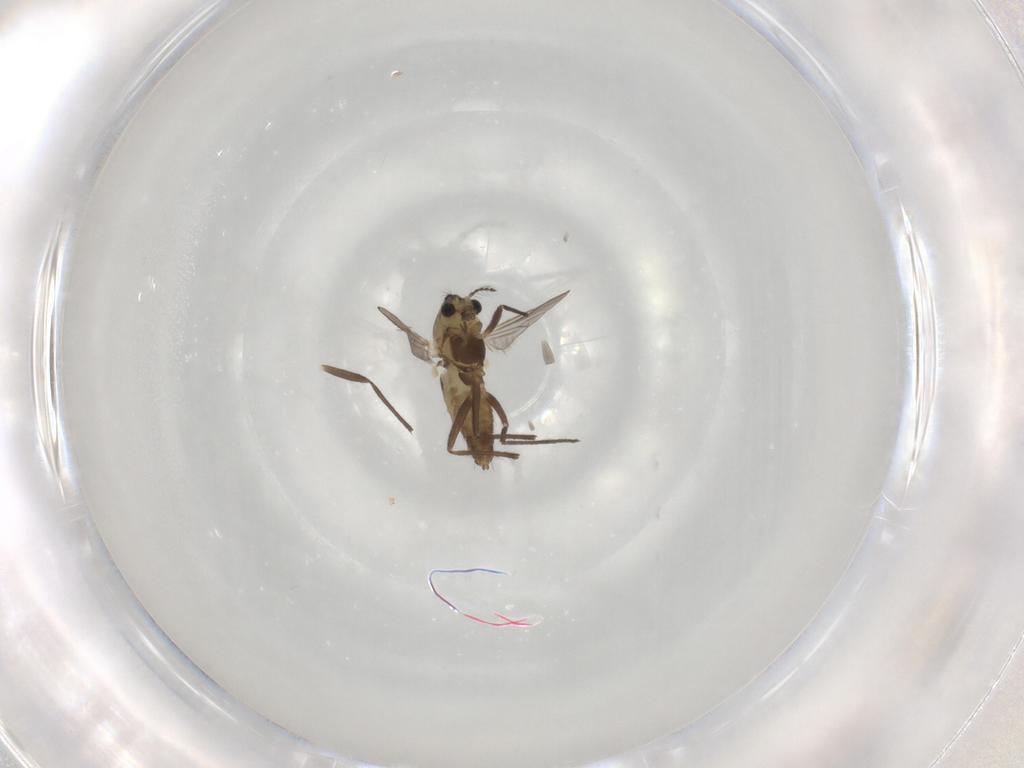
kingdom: Animalia
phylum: Arthropoda
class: Insecta
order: Diptera
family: Chironomidae
